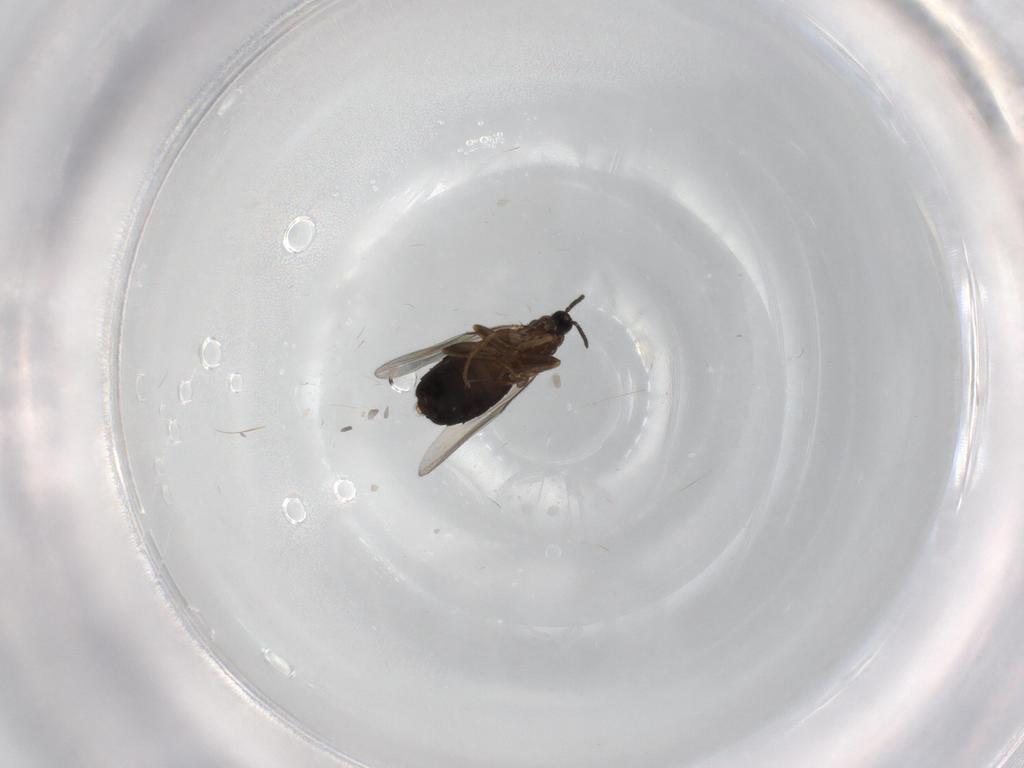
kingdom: Animalia
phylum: Arthropoda
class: Insecta
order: Diptera
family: Scatopsidae
